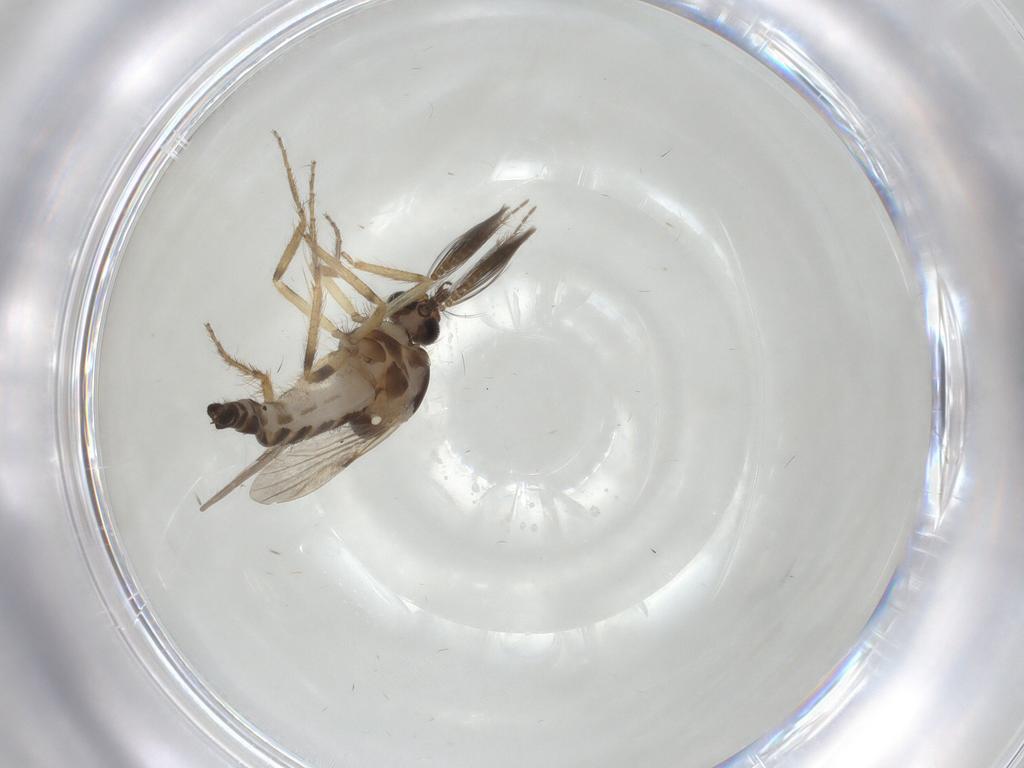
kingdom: Animalia
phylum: Arthropoda
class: Insecta
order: Diptera
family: Ceratopogonidae
